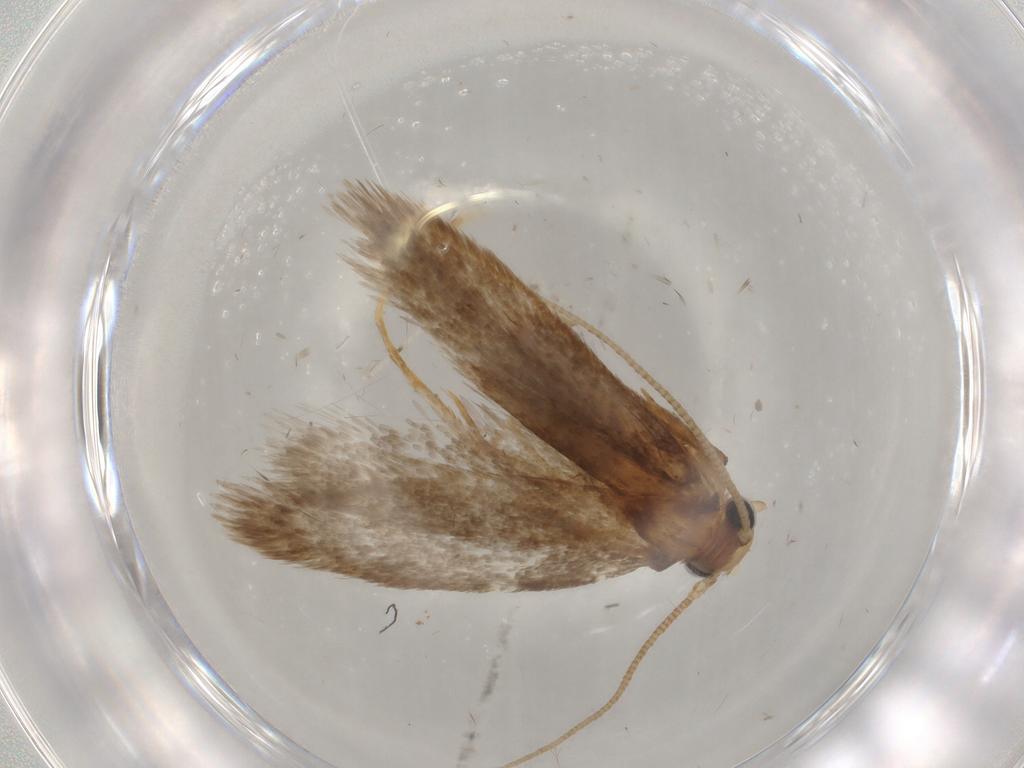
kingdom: Animalia
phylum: Arthropoda
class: Insecta
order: Lepidoptera
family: Tineidae
